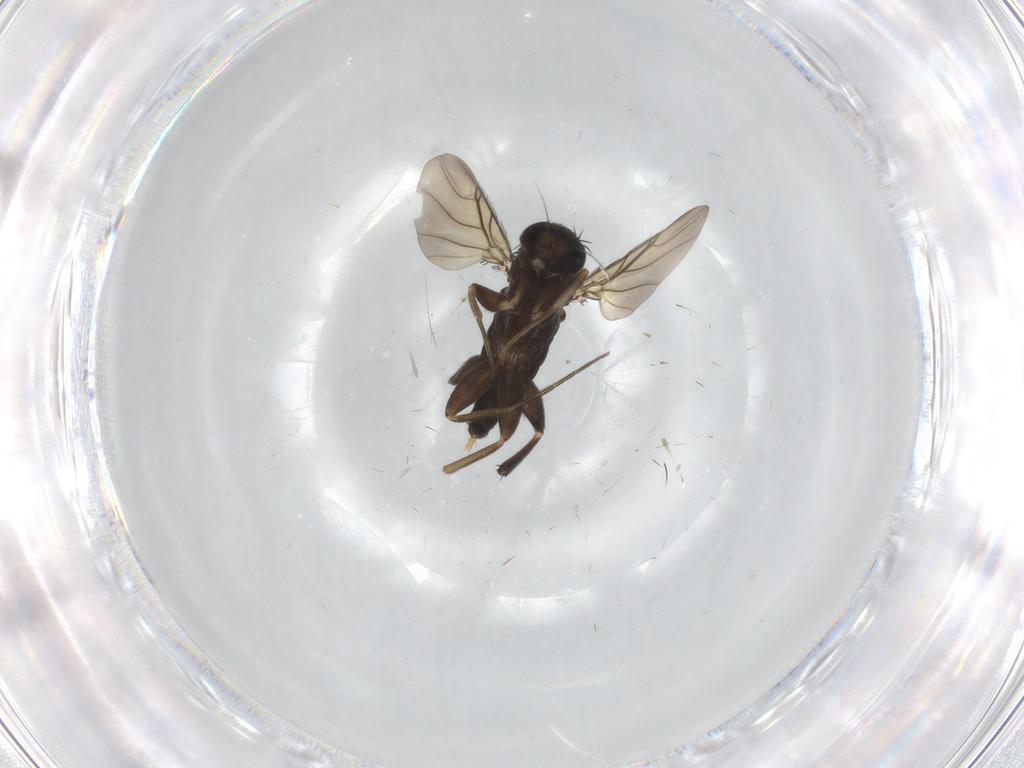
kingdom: Animalia
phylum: Arthropoda
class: Insecta
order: Diptera
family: Phoridae
